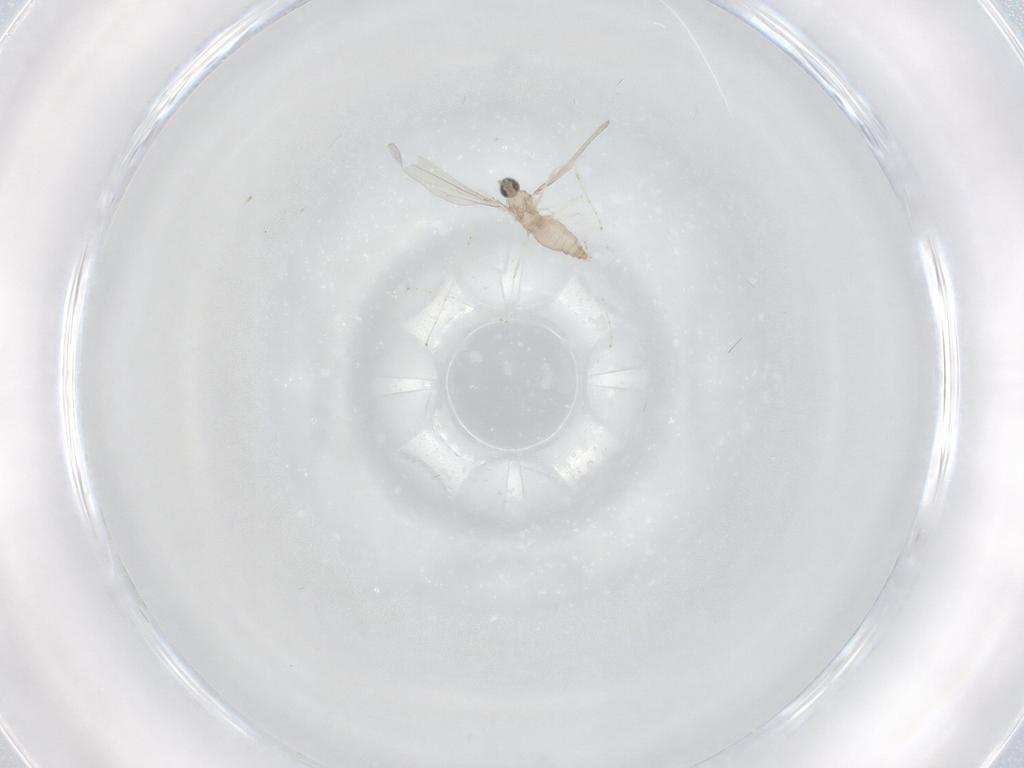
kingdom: Animalia
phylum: Arthropoda
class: Insecta
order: Diptera
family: Cecidomyiidae
